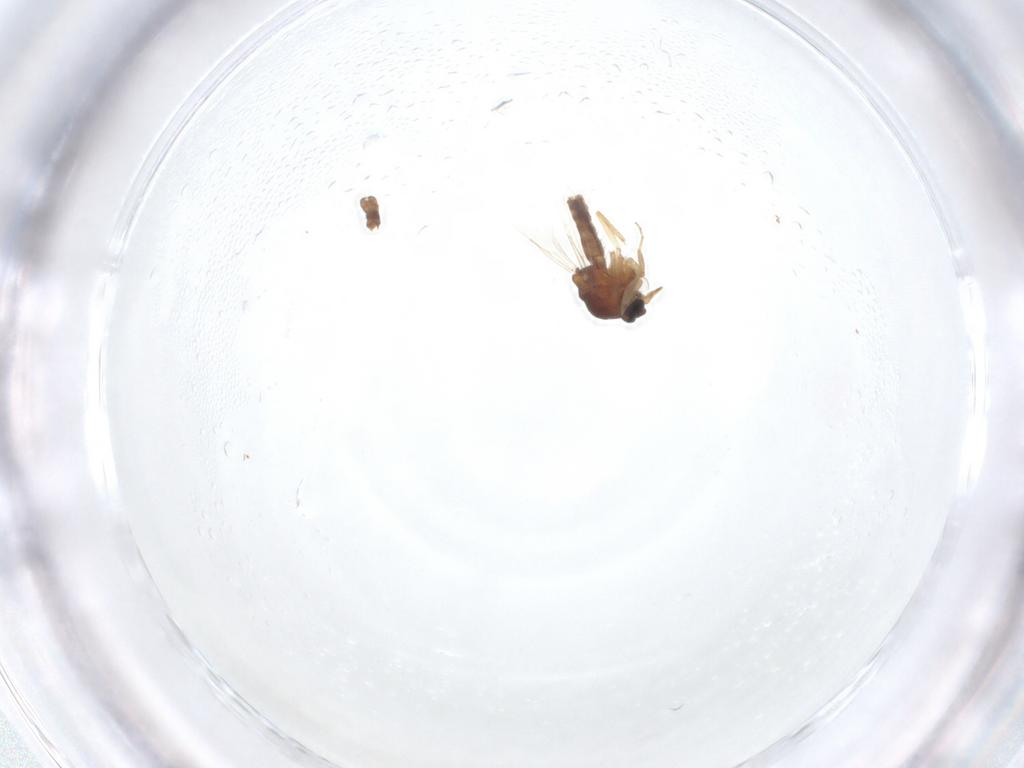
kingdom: Animalia
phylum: Arthropoda
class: Insecta
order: Diptera
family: Ceratopogonidae
